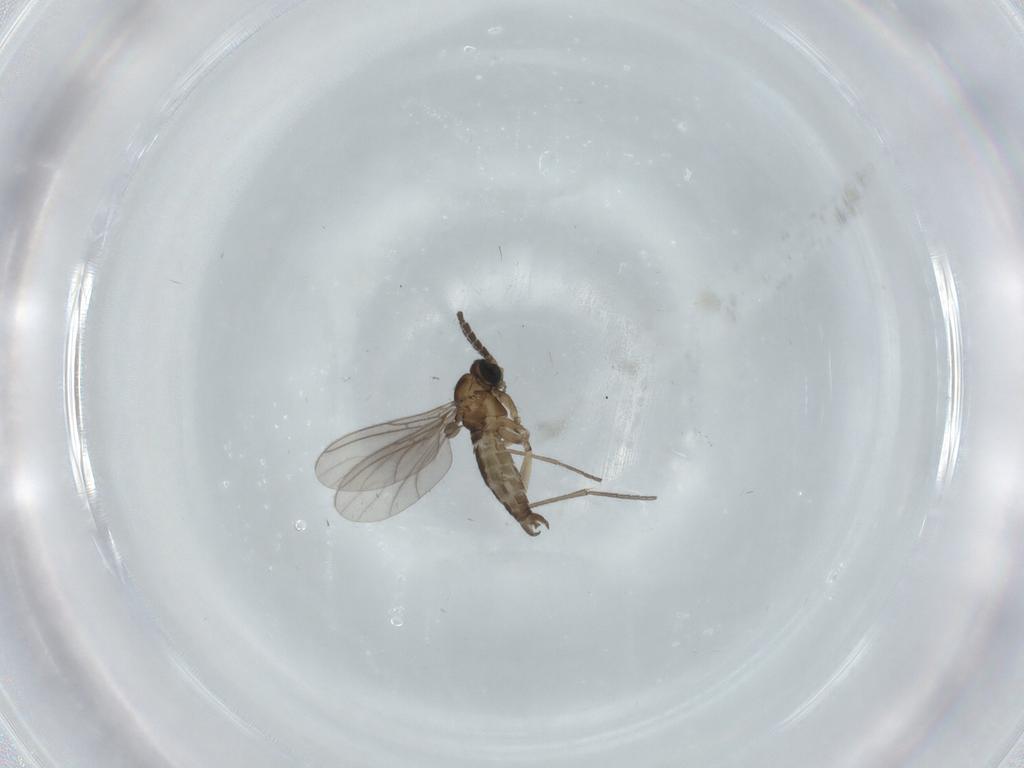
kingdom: Animalia
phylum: Arthropoda
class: Insecta
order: Diptera
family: Sciaridae
